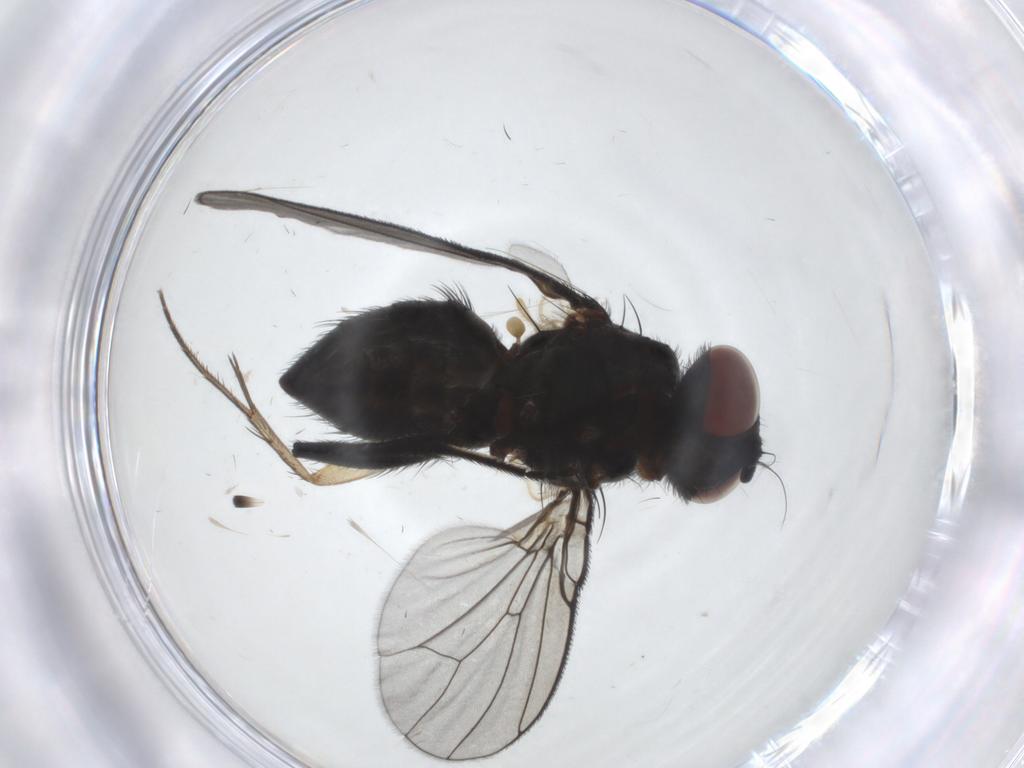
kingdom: Animalia
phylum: Arthropoda
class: Insecta
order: Diptera
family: Muscidae
